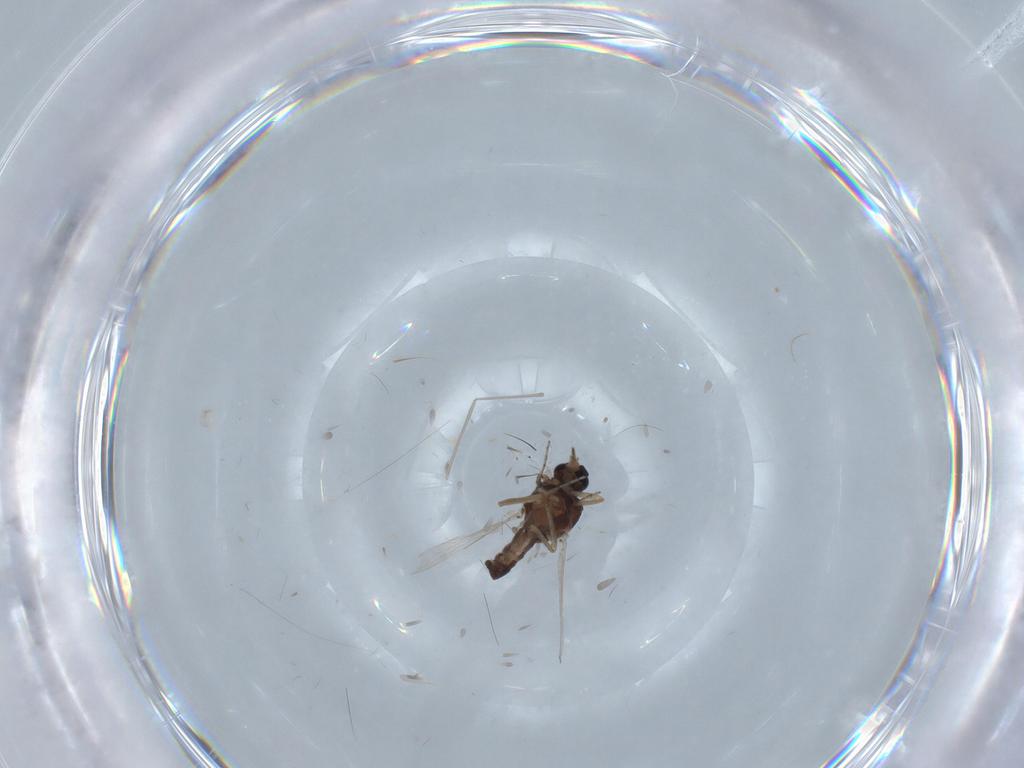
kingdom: Animalia
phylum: Arthropoda
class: Insecta
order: Diptera
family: Ceratopogonidae
